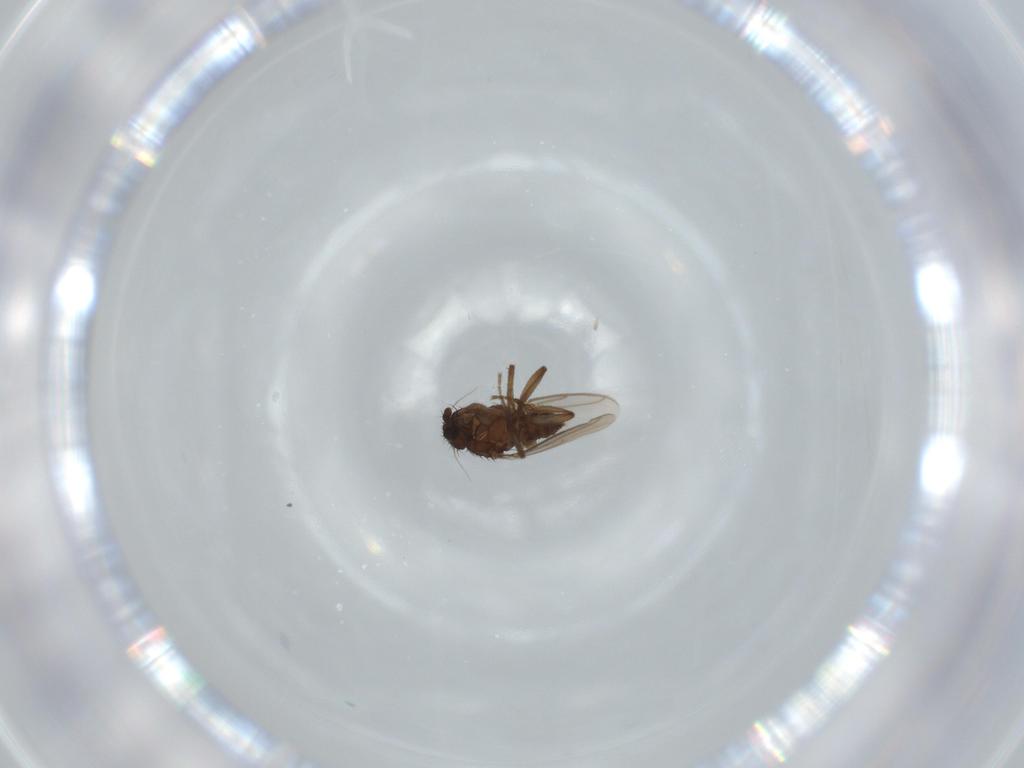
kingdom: Animalia
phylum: Arthropoda
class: Insecta
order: Diptera
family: Sphaeroceridae
